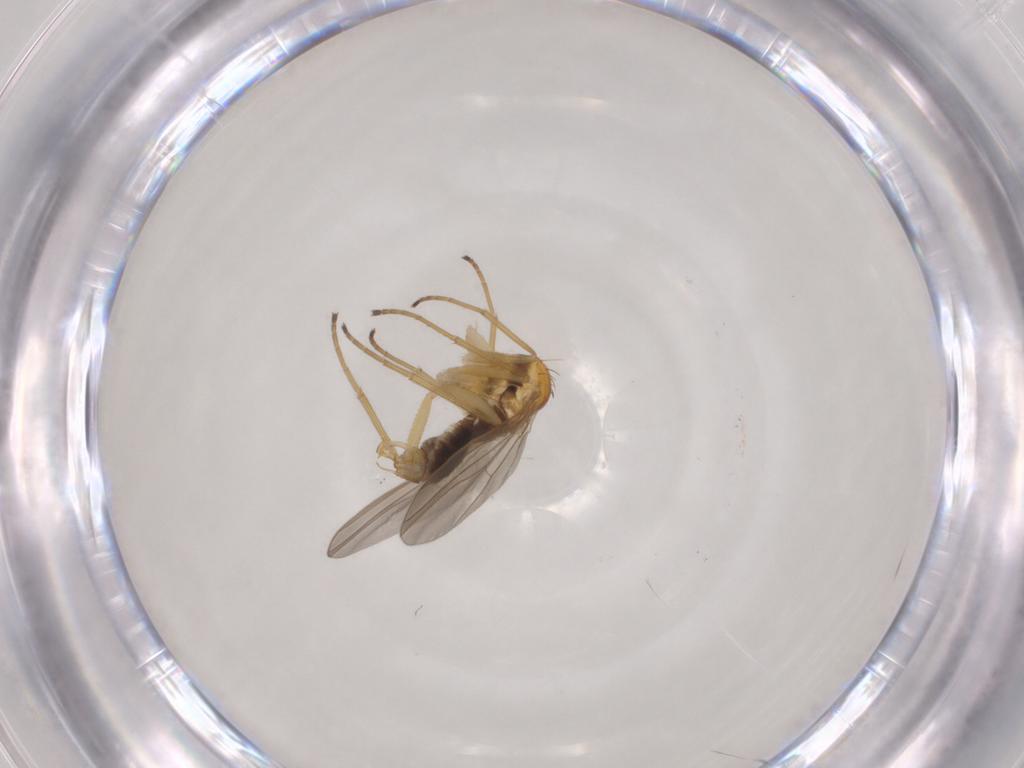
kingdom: Animalia
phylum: Arthropoda
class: Insecta
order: Diptera
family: Dolichopodidae
